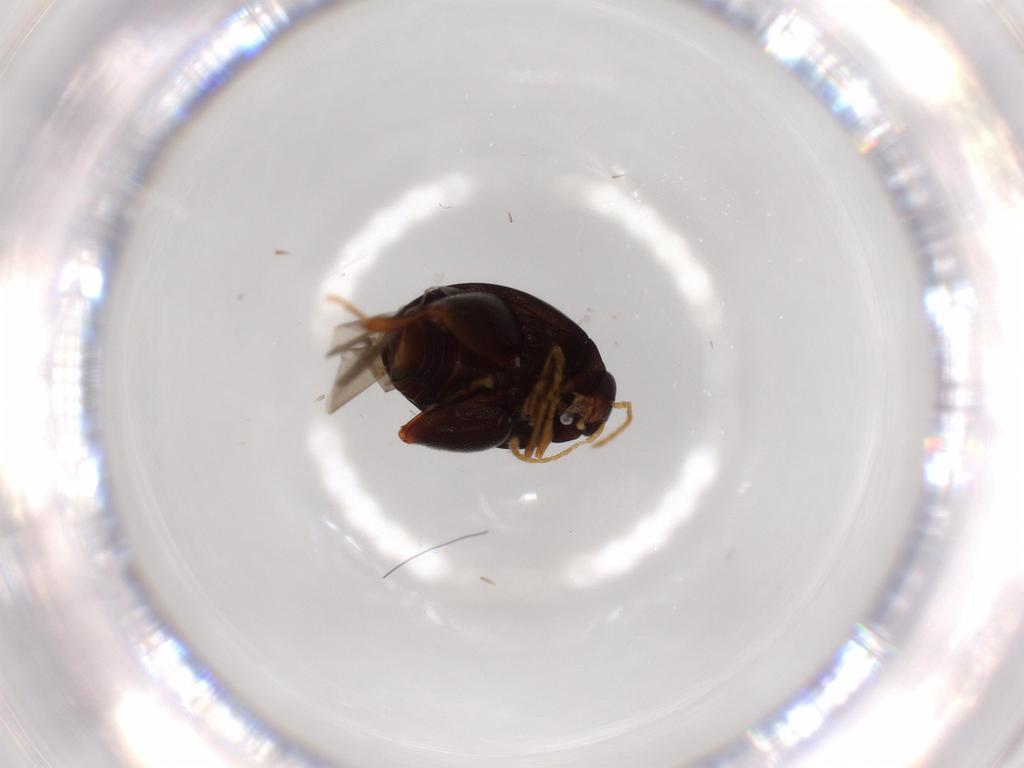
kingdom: Animalia
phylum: Arthropoda
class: Insecta
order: Coleoptera
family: Chrysomelidae
